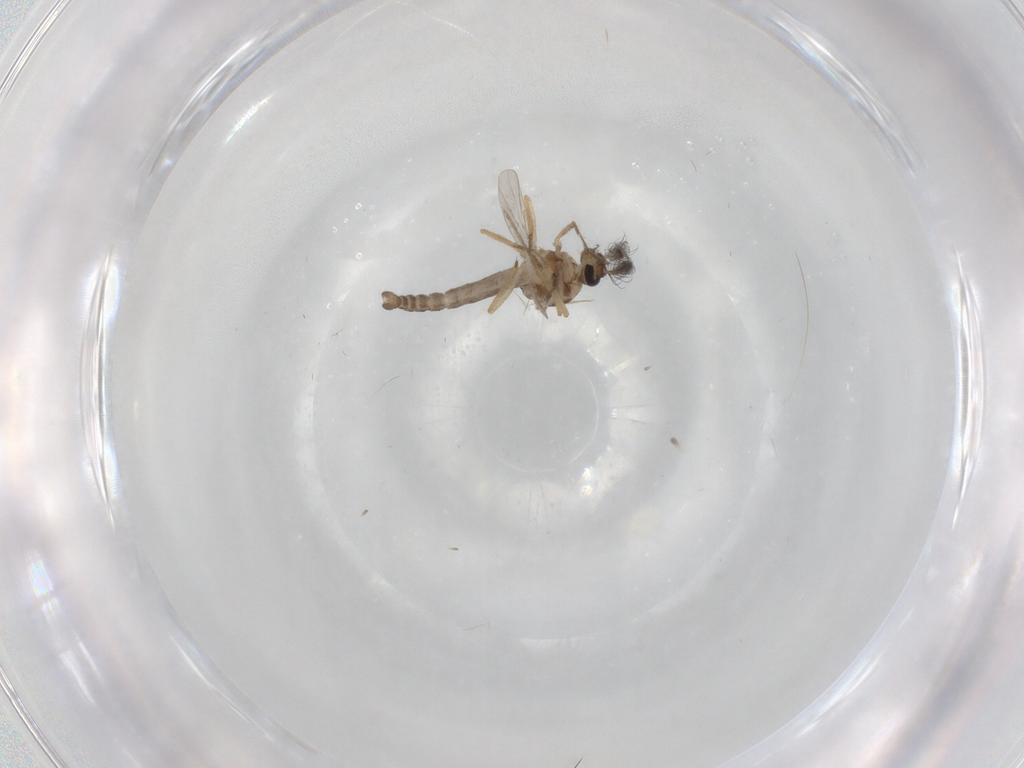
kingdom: Animalia
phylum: Arthropoda
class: Insecta
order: Diptera
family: Ceratopogonidae
